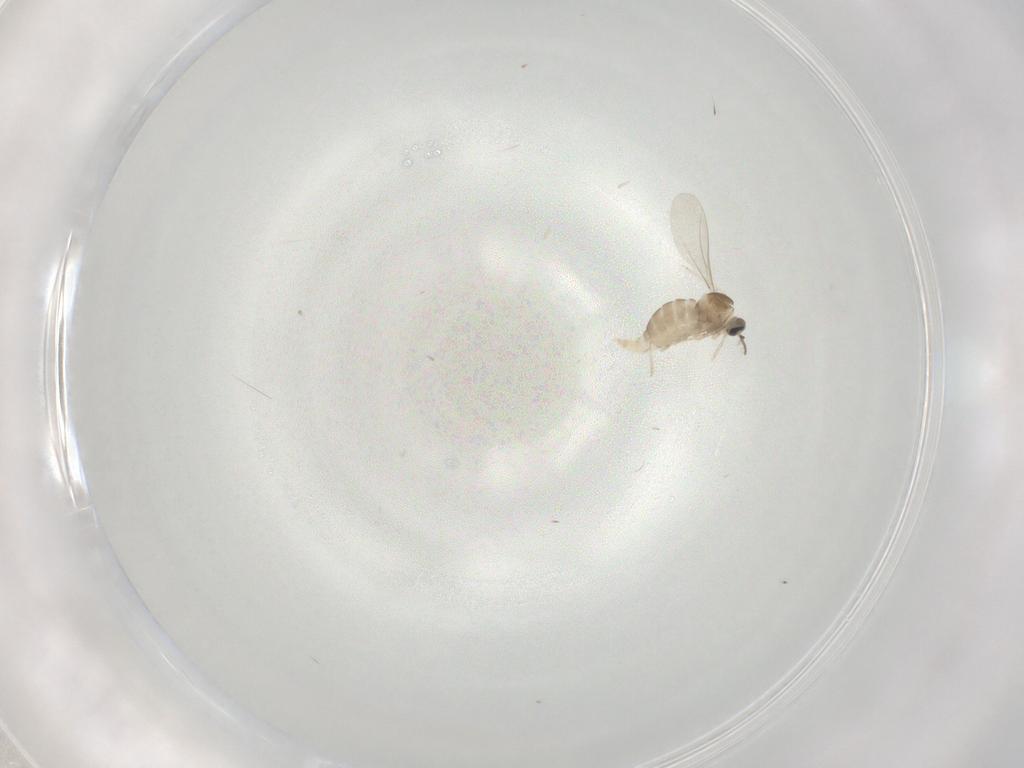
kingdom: Animalia
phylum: Arthropoda
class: Insecta
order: Diptera
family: Cecidomyiidae
